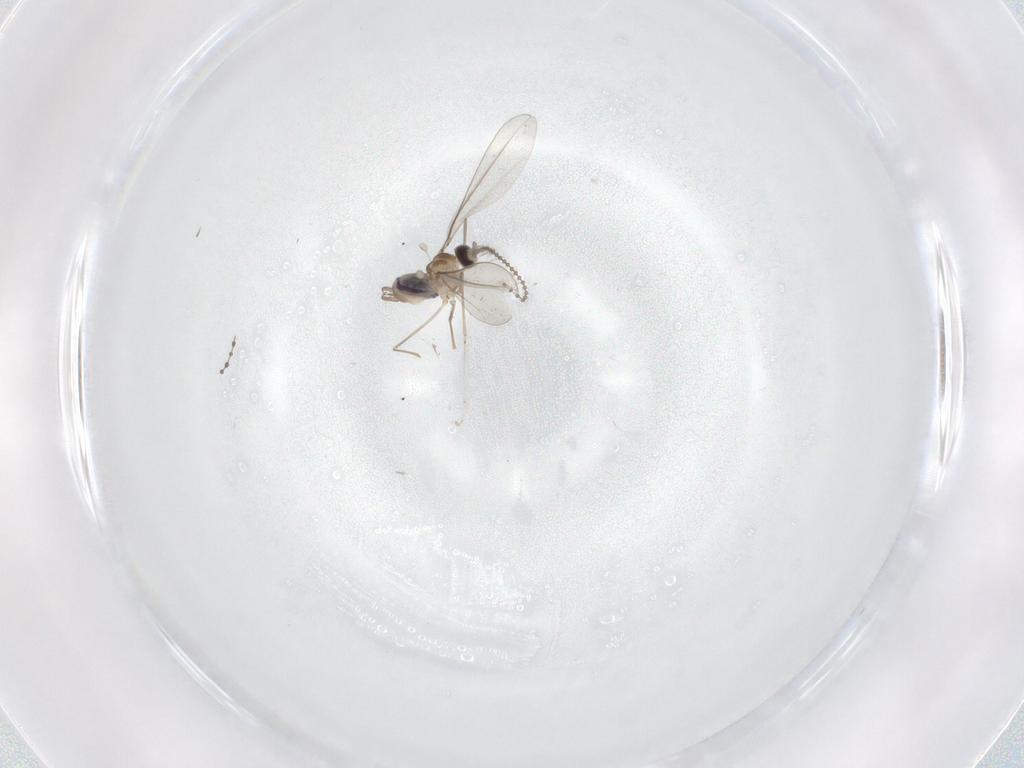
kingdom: Animalia
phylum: Arthropoda
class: Insecta
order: Diptera
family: Cecidomyiidae
